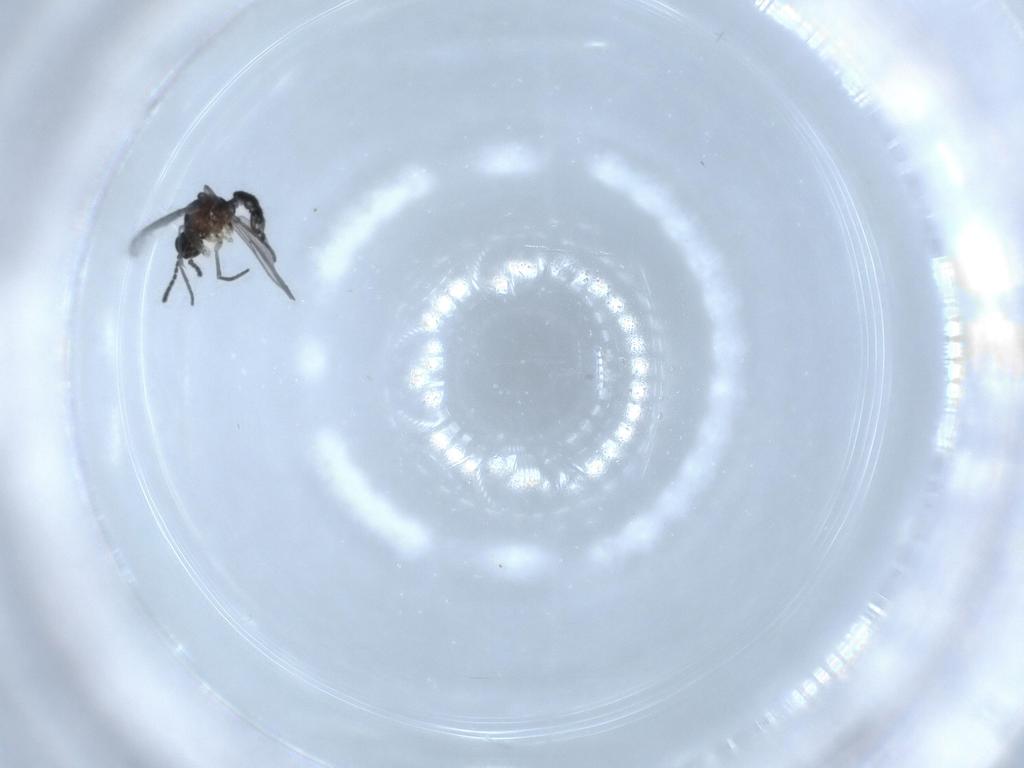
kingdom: Animalia
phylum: Arthropoda
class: Insecta
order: Diptera
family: Sciaridae
